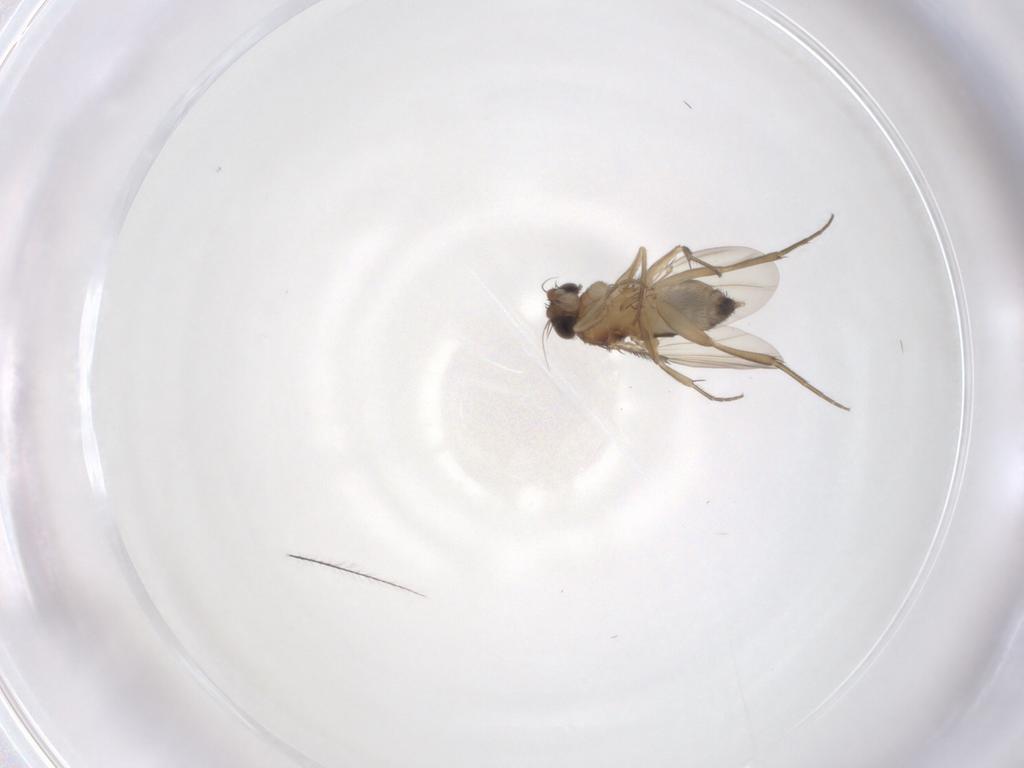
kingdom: Animalia
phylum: Arthropoda
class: Insecta
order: Diptera
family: Phoridae
